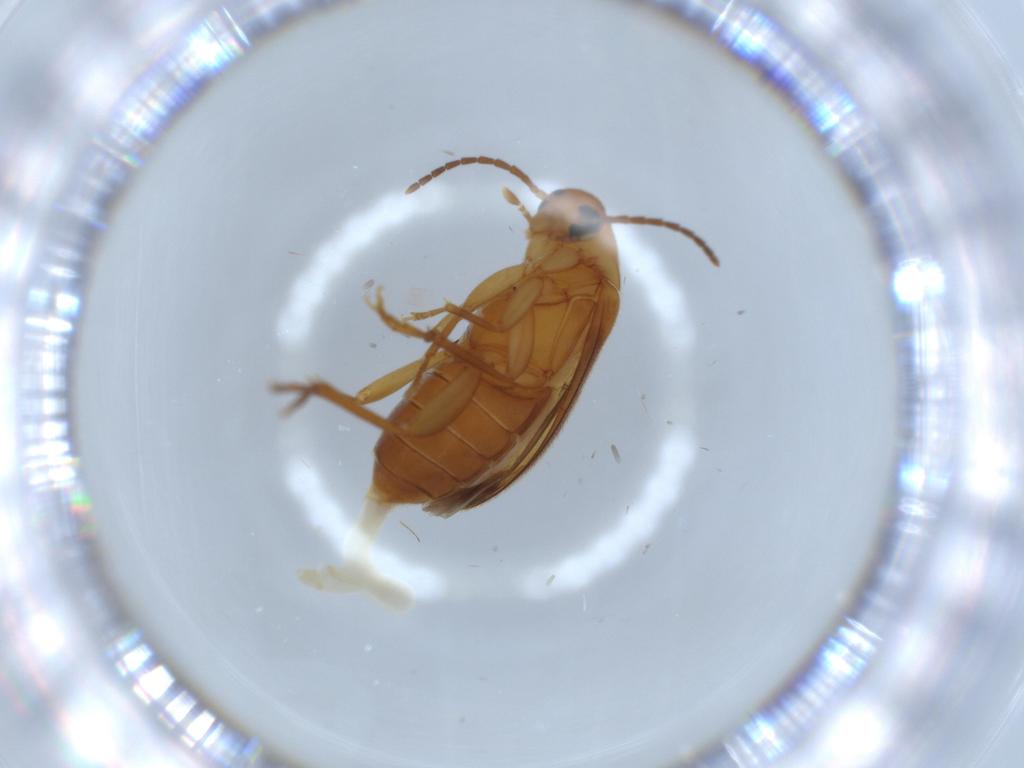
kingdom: Animalia
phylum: Arthropoda
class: Insecta
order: Coleoptera
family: Scraptiidae
